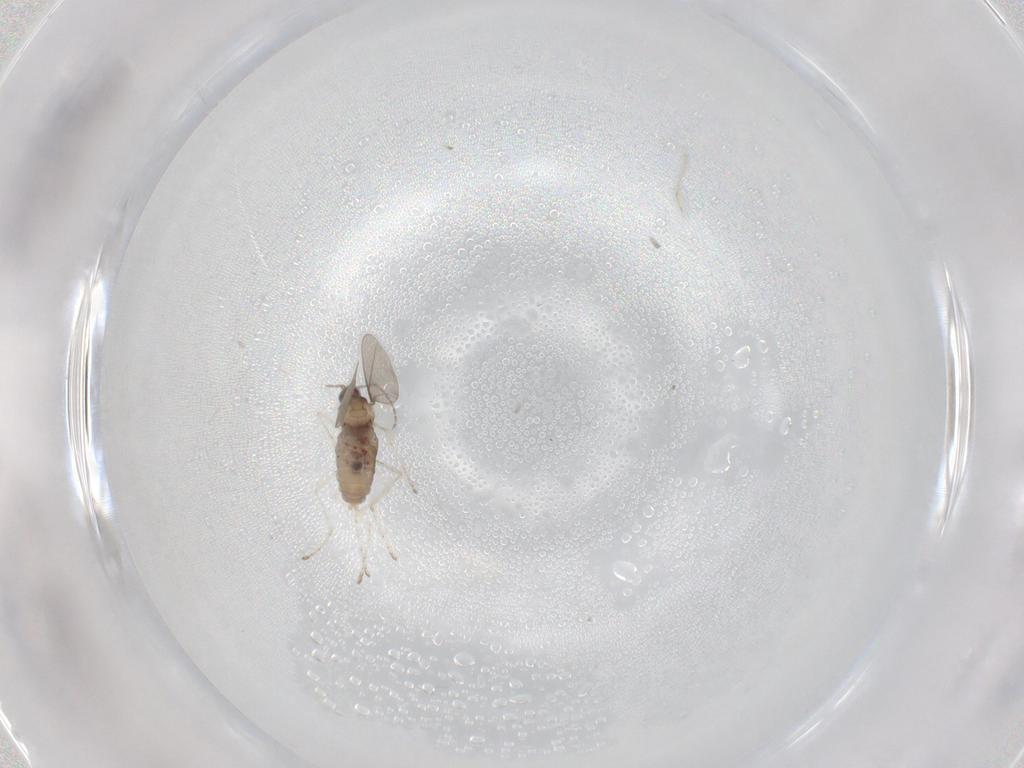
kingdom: Animalia
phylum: Arthropoda
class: Insecta
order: Diptera
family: Cecidomyiidae
